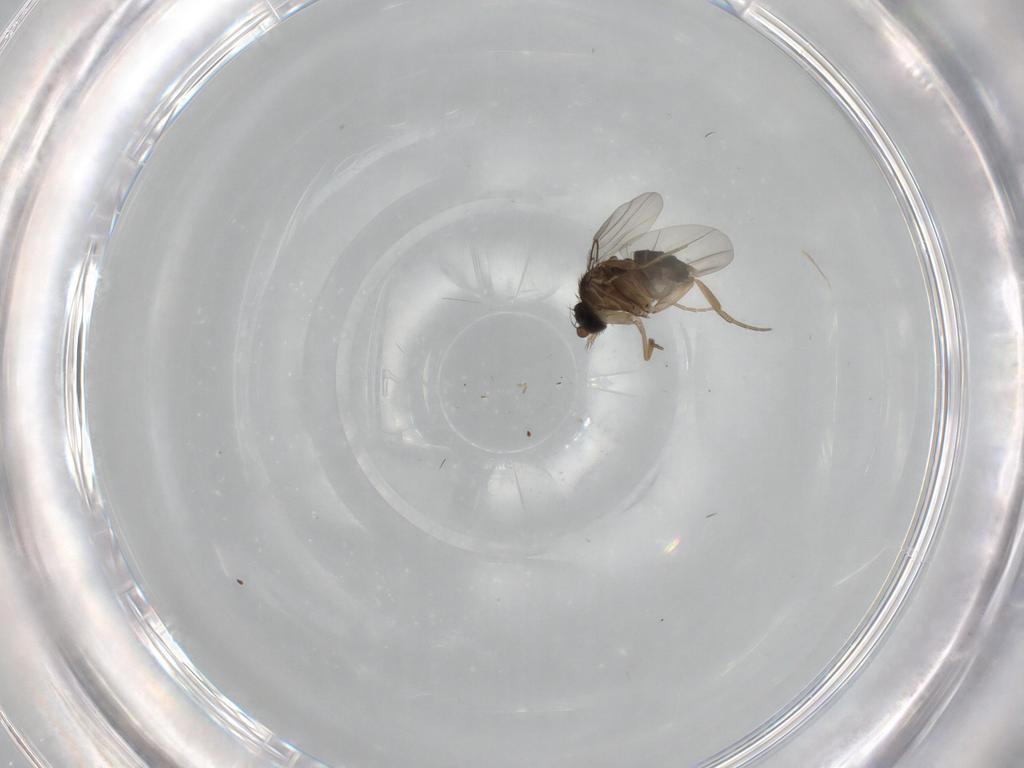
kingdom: Animalia
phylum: Arthropoda
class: Insecta
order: Diptera
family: Phoridae
